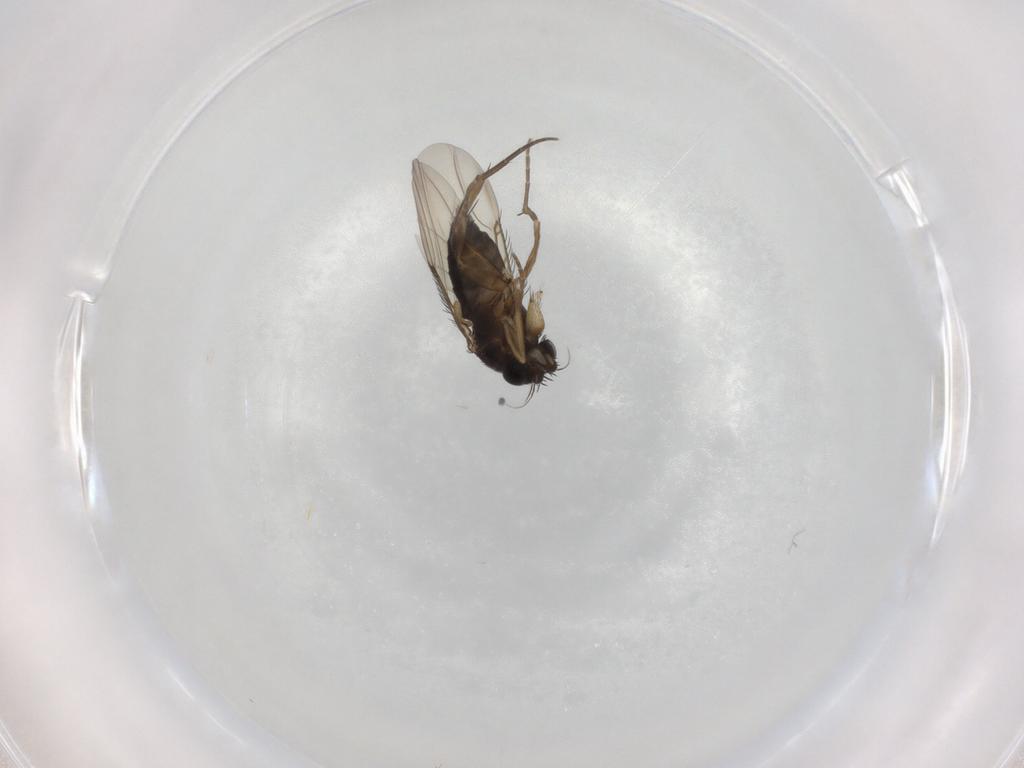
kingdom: Animalia
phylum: Arthropoda
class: Insecta
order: Diptera
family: Phoridae
